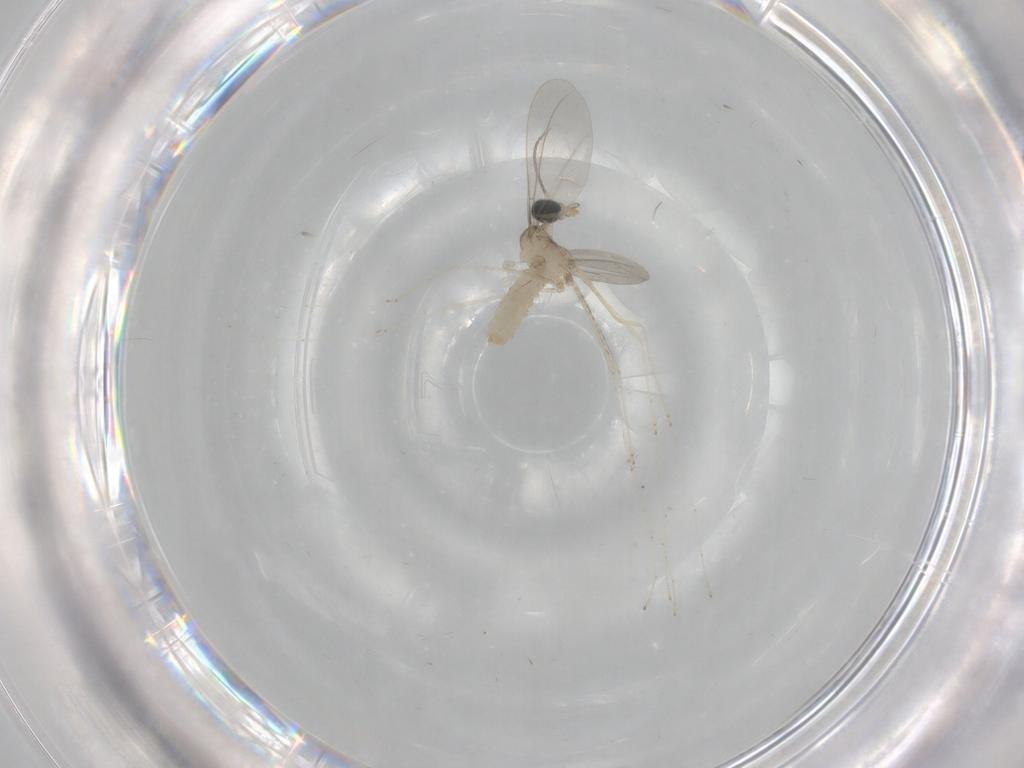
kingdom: Animalia
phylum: Arthropoda
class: Insecta
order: Diptera
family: Cecidomyiidae
